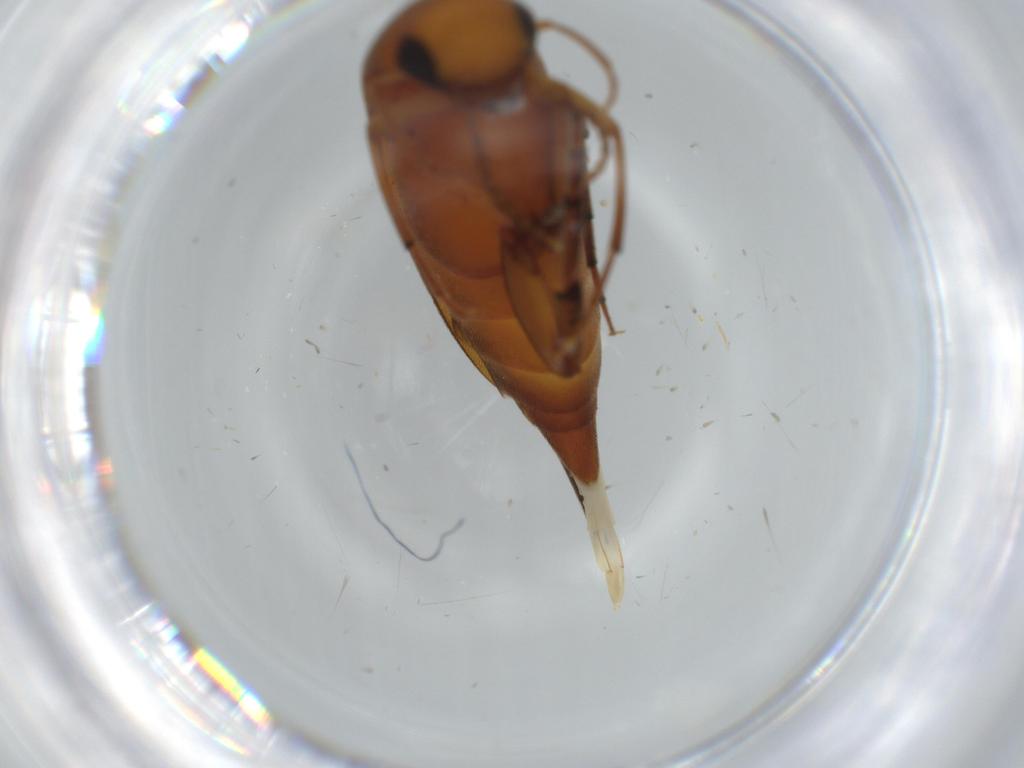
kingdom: Animalia
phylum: Arthropoda
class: Insecta
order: Coleoptera
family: Mordellidae
